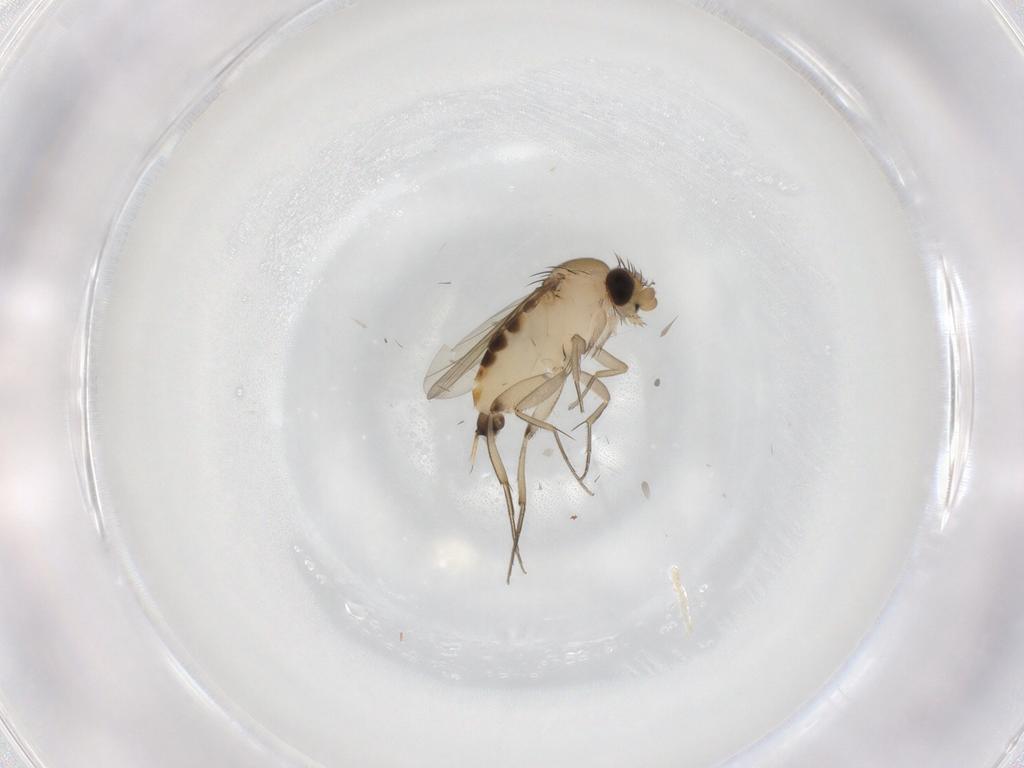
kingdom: Animalia
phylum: Arthropoda
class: Insecta
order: Diptera
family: Phoridae
